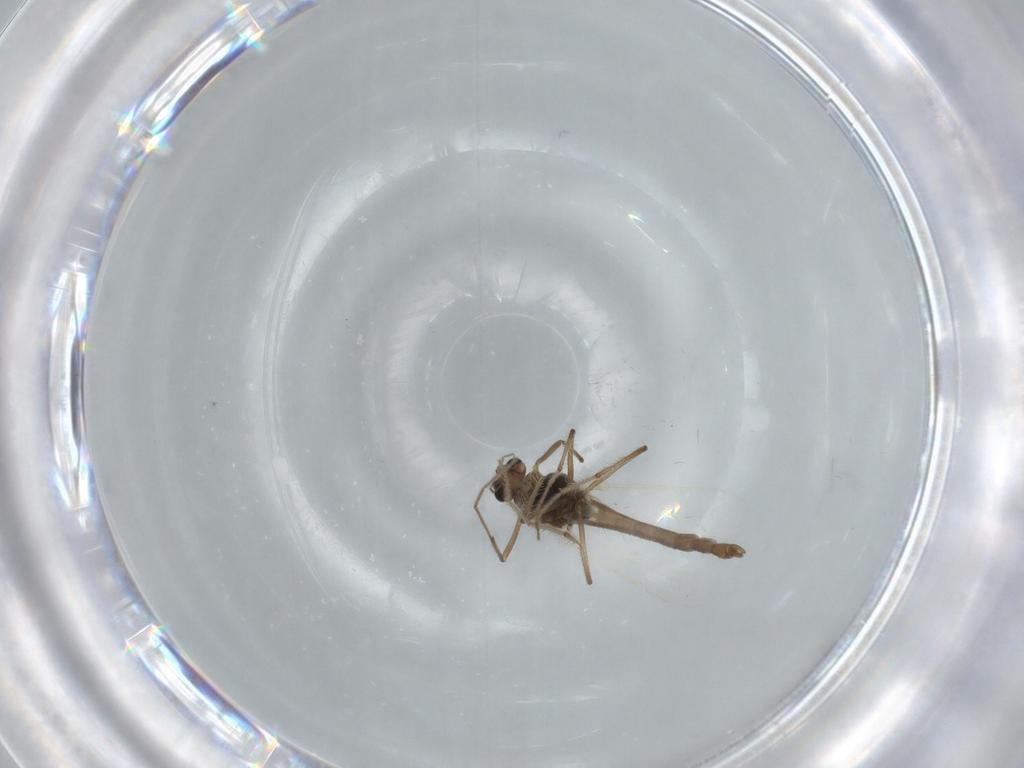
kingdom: Animalia
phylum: Arthropoda
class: Insecta
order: Diptera
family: Chironomidae
